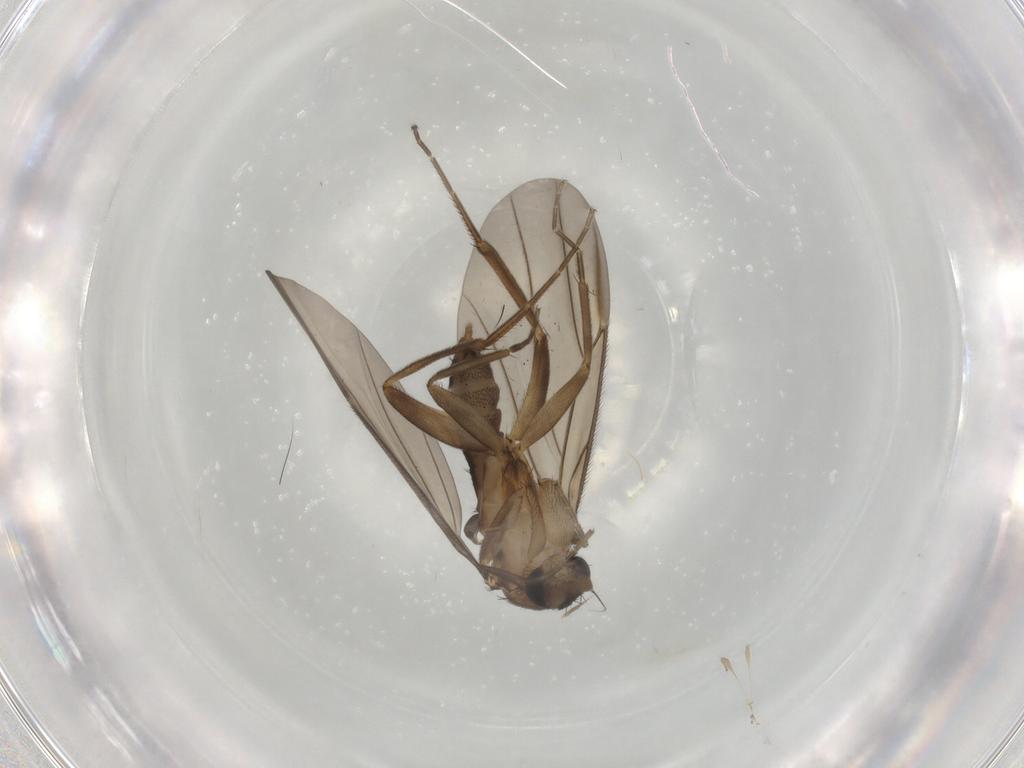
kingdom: Animalia
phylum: Arthropoda
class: Insecta
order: Diptera
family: Phoridae
